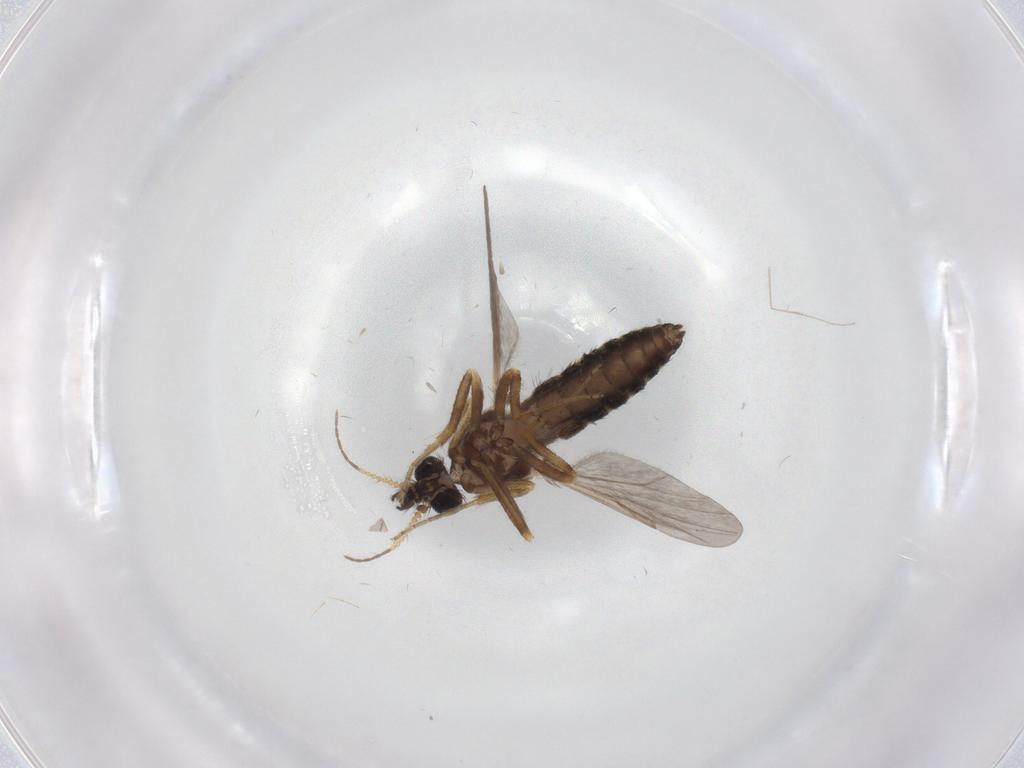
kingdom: Animalia
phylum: Arthropoda
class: Insecta
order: Diptera
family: Ceratopogonidae
